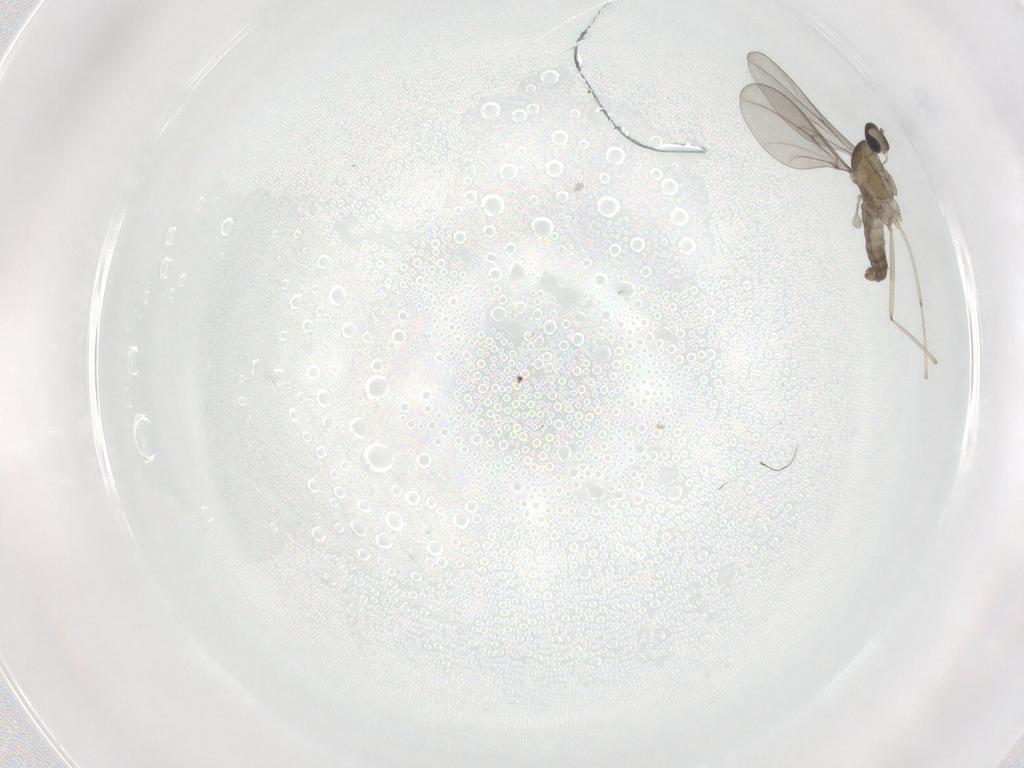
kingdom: Animalia
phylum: Arthropoda
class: Insecta
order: Diptera
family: Cecidomyiidae
